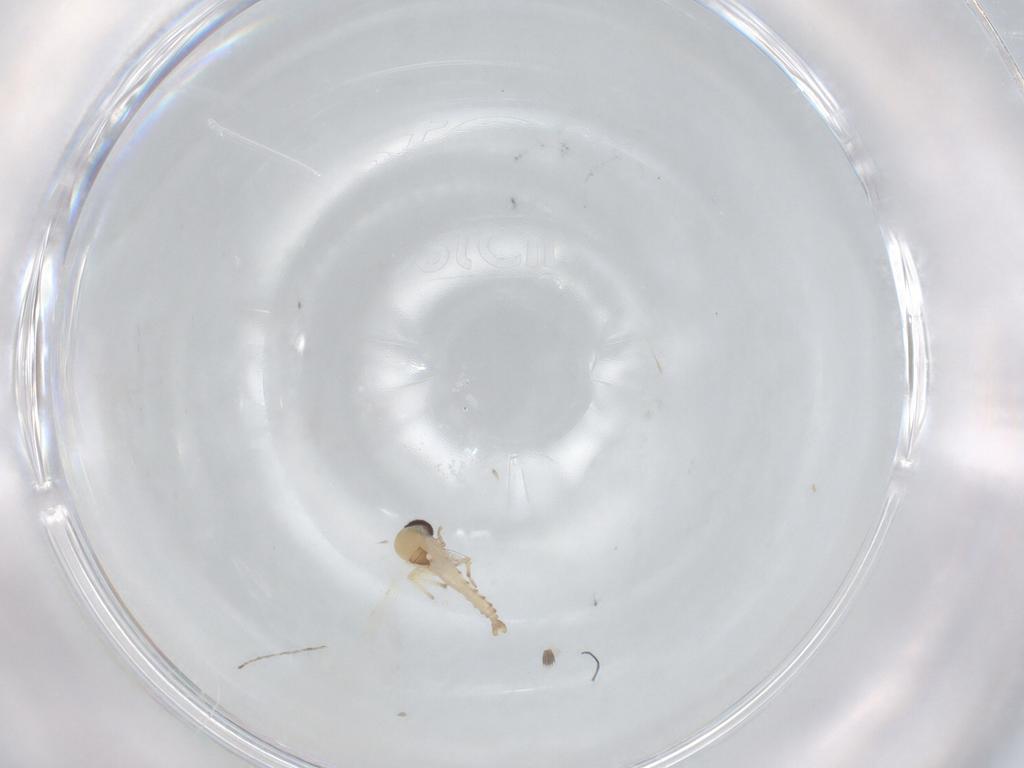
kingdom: Animalia
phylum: Arthropoda
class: Insecta
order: Diptera
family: Ceratopogonidae
